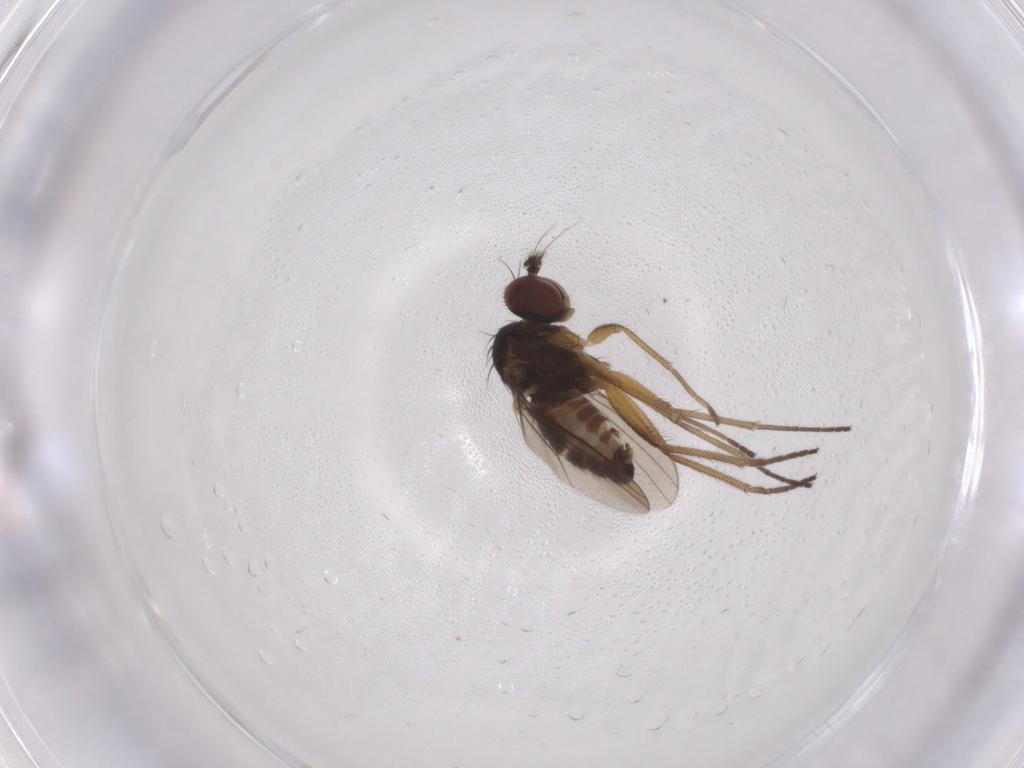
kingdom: Animalia
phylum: Arthropoda
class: Insecta
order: Diptera
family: Dolichopodidae
